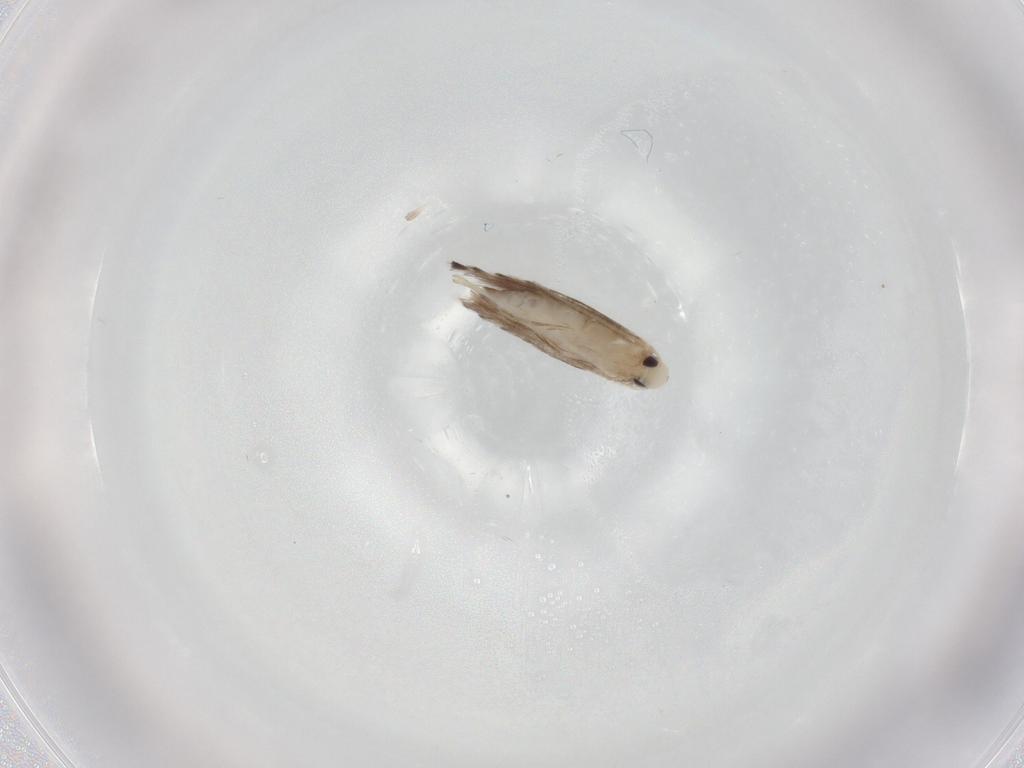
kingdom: Animalia
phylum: Arthropoda
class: Insecta
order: Lepidoptera
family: Gracillariidae
